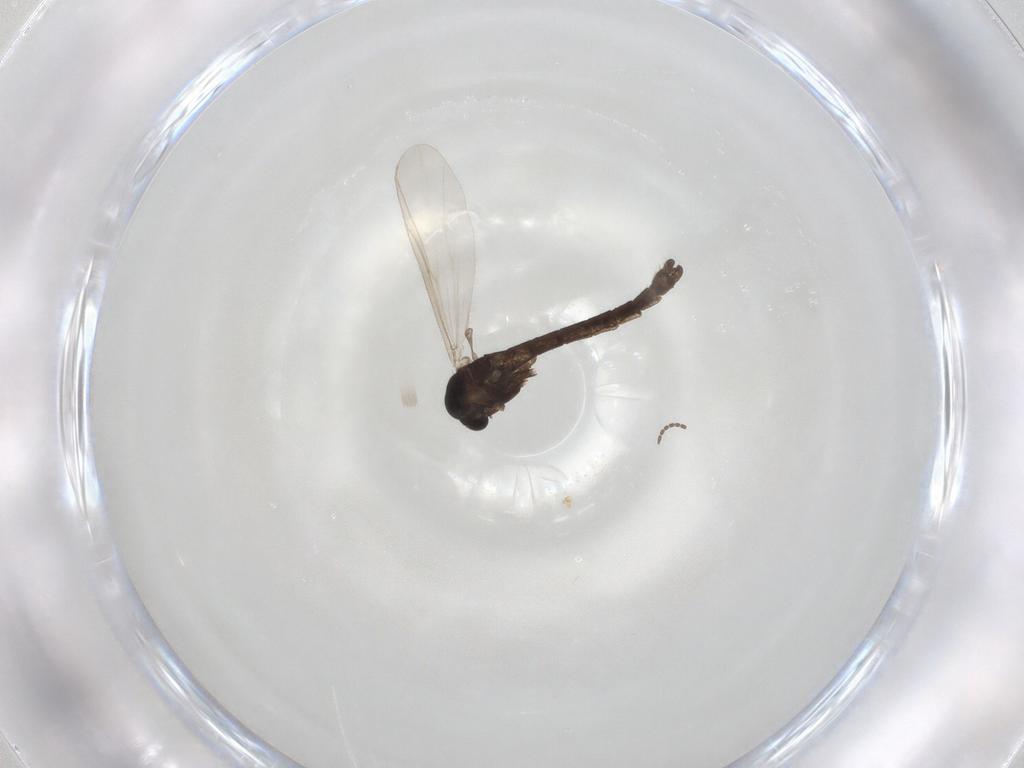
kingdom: Animalia
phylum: Arthropoda
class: Insecta
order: Diptera
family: Chironomidae
